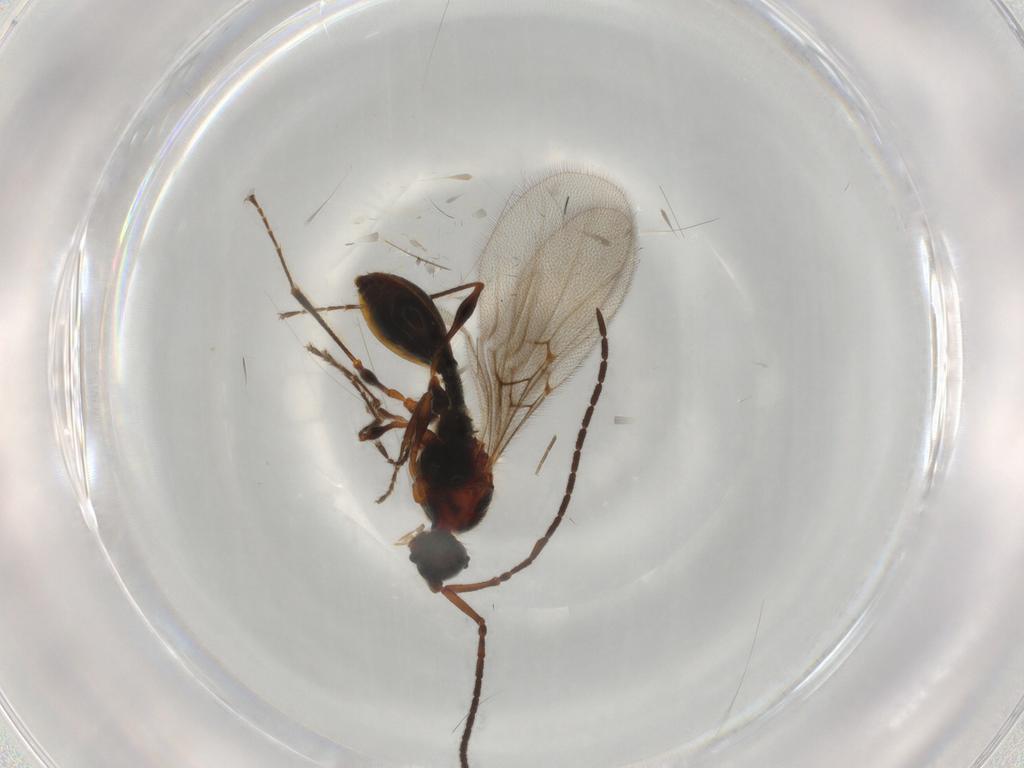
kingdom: Animalia
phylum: Arthropoda
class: Insecta
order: Hymenoptera
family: Diapriidae
